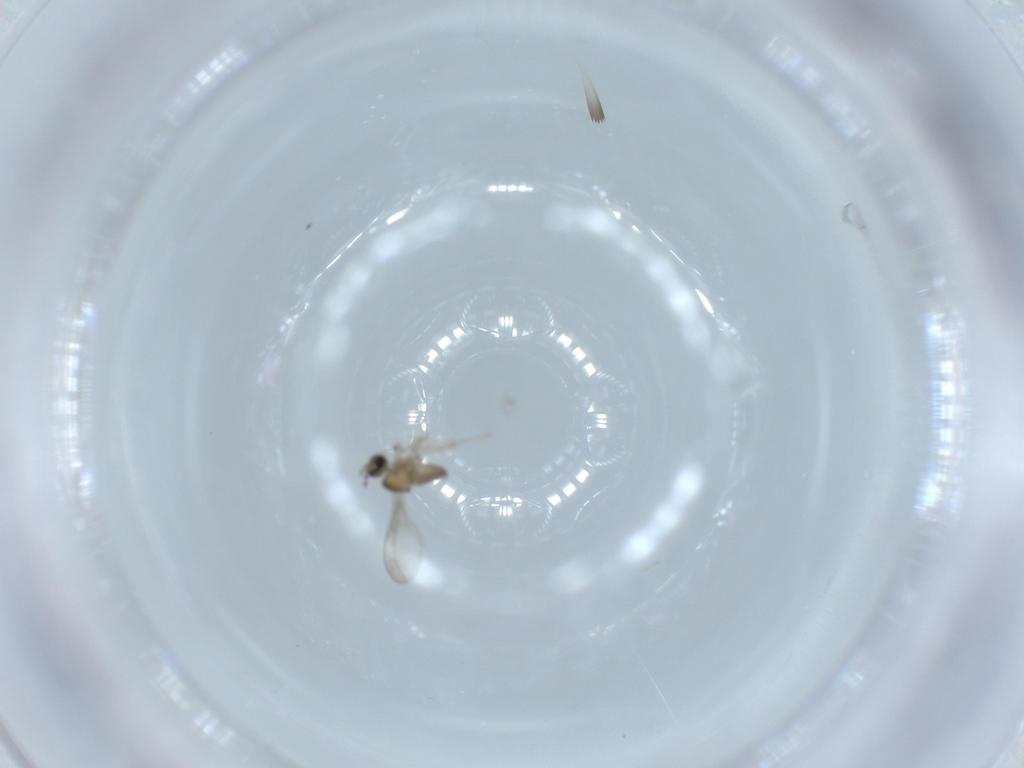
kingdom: Animalia
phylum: Arthropoda
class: Insecta
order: Diptera
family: Cecidomyiidae
